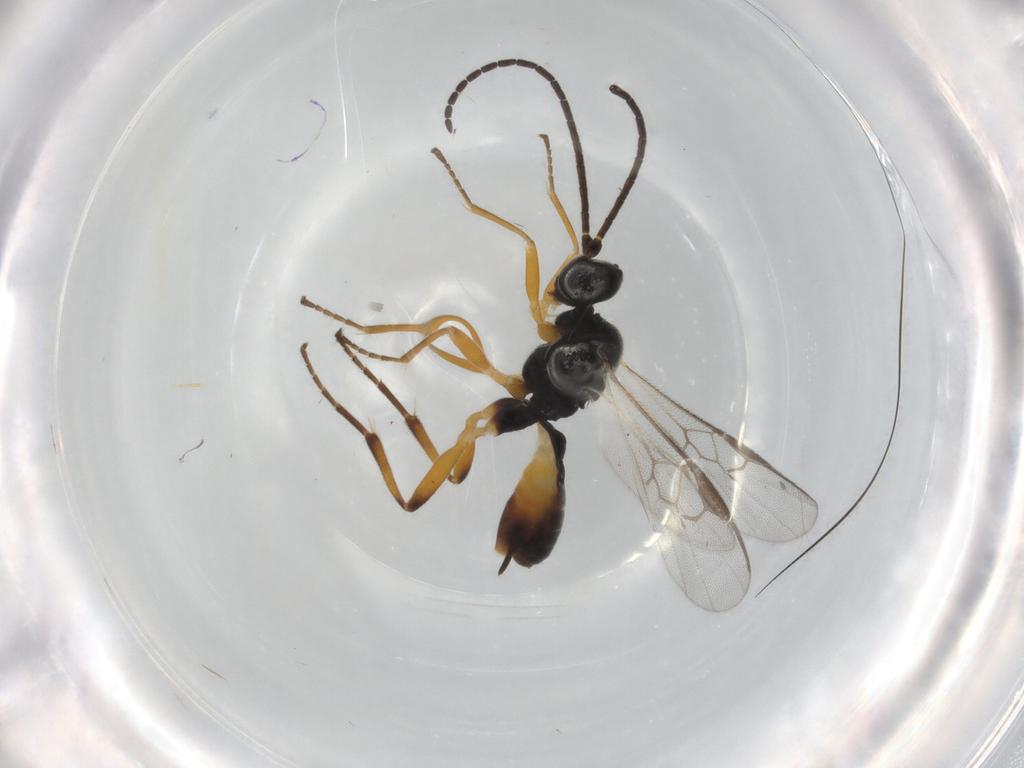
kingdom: Animalia
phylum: Arthropoda
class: Insecta
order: Hymenoptera
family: Braconidae
